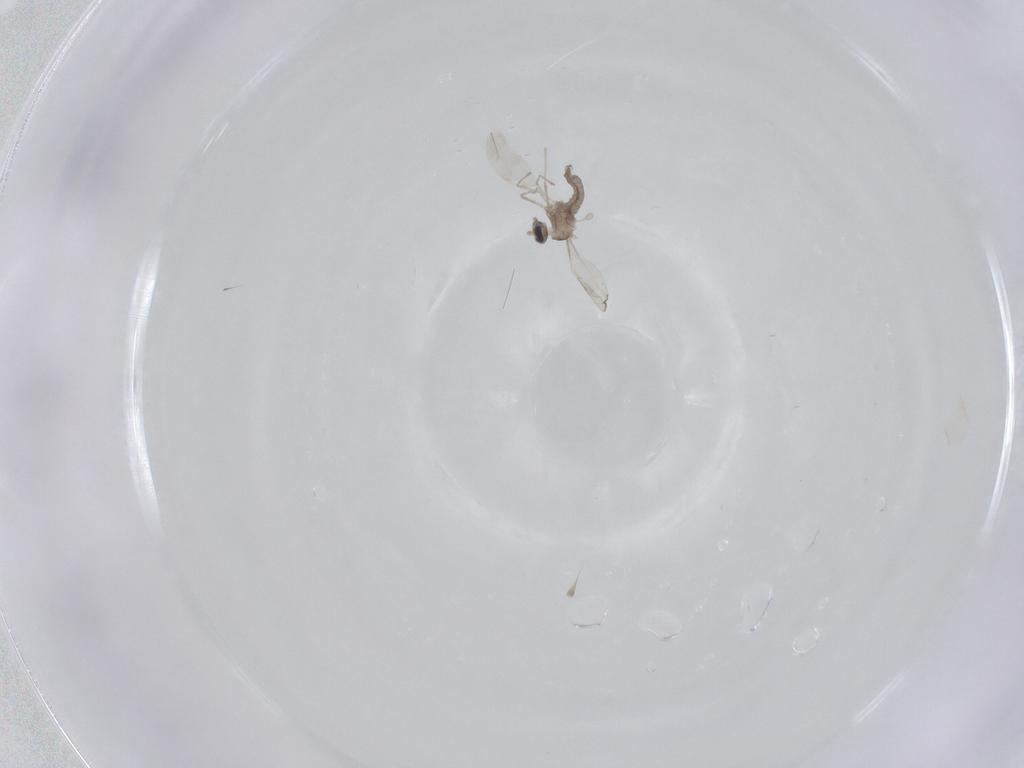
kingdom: Animalia
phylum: Arthropoda
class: Insecta
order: Diptera
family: Cecidomyiidae
